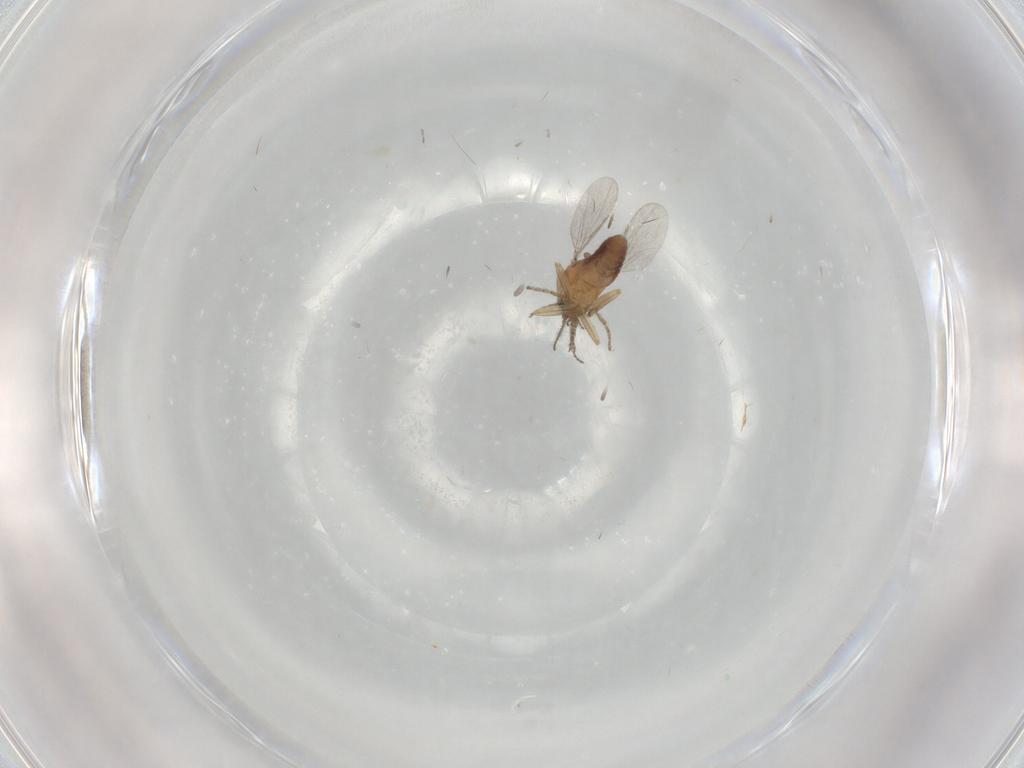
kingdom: Animalia
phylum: Arthropoda
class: Insecta
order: Diptera
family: Ceratopogonidae
